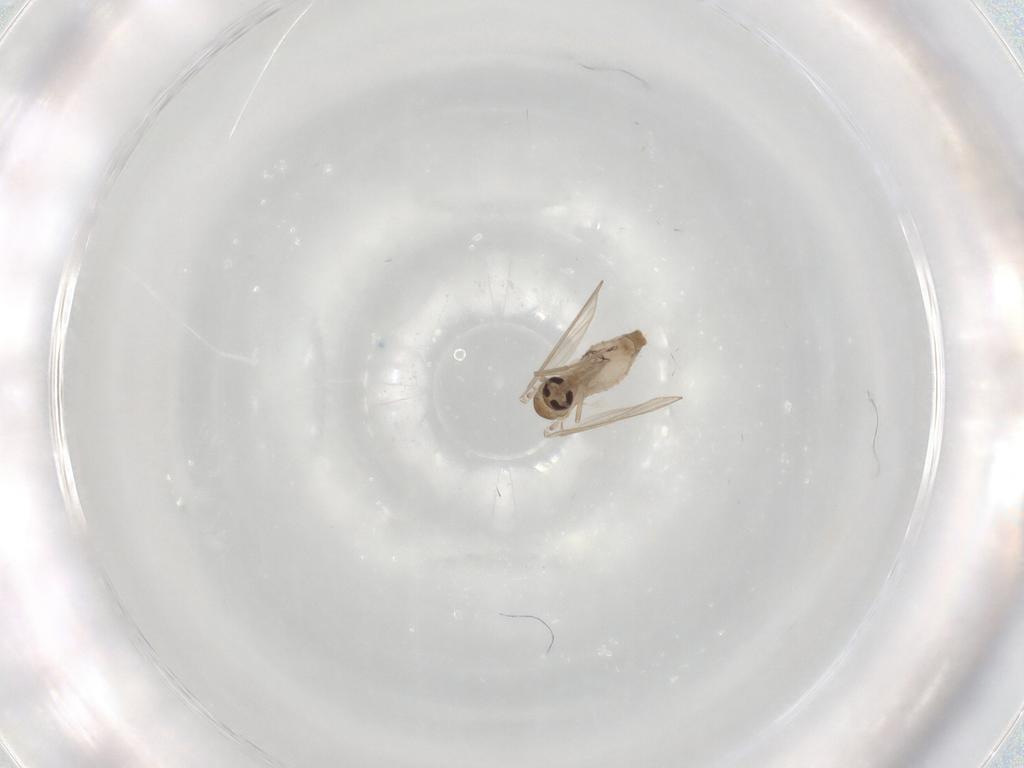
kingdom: Animalia
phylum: Arthropoda
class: Insecta
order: Diptera
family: Psychodidae
